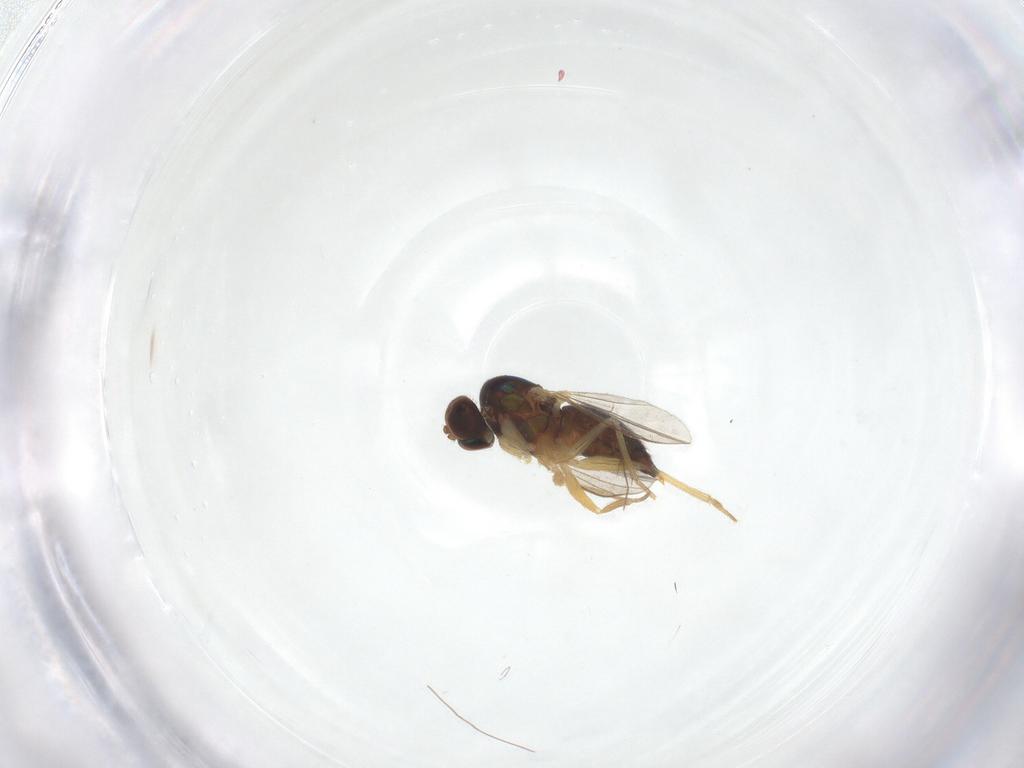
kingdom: Animalia
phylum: Arthropoda
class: Insecta
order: Diptera
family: Dolichopodidae
